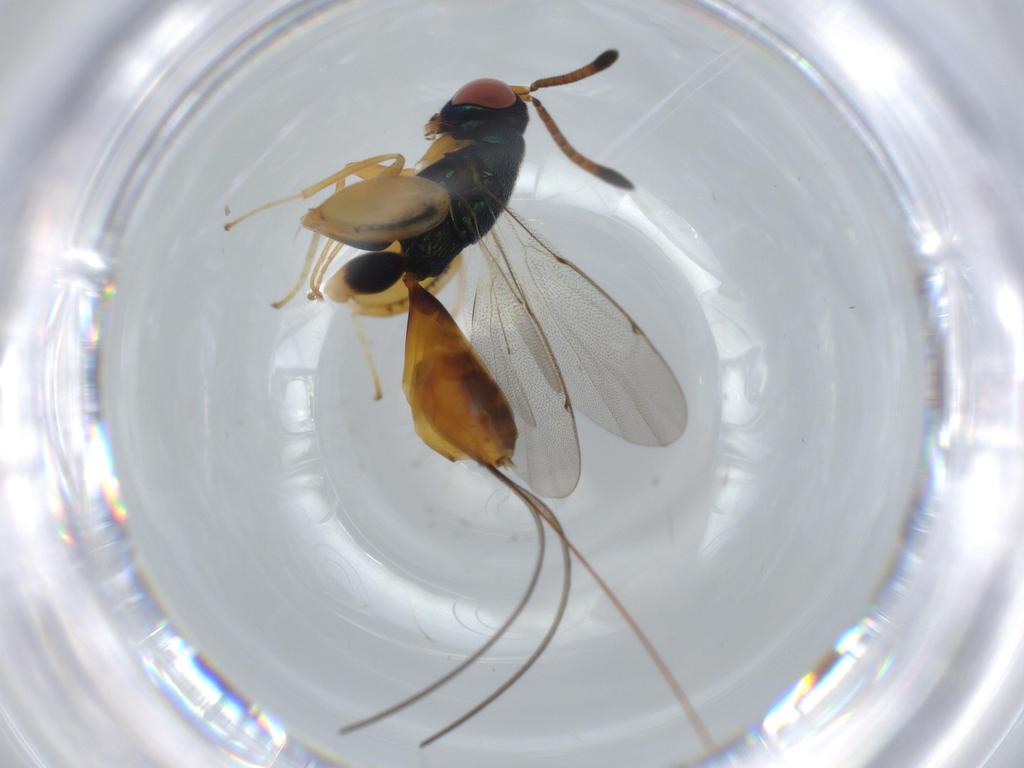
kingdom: Animalia
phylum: Arthropoda
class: Insecta
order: Hymenoptera
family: Torymidae
